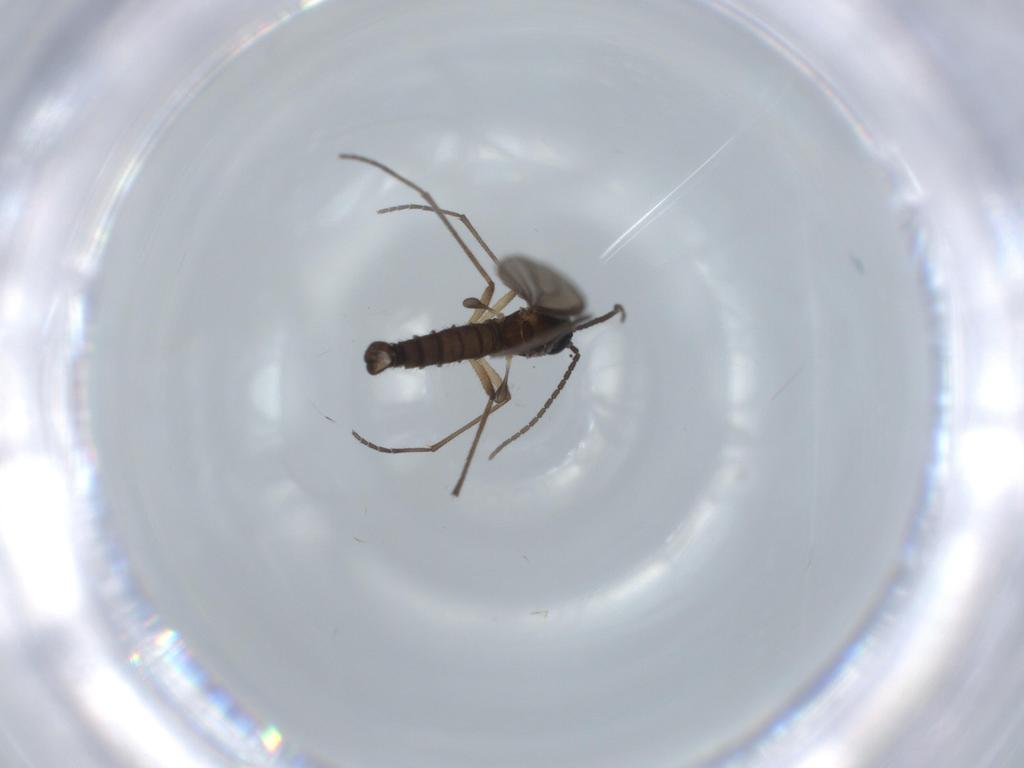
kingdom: Animalia
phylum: Arthropoda
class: Insecta
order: Diptera
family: Sciaridae
